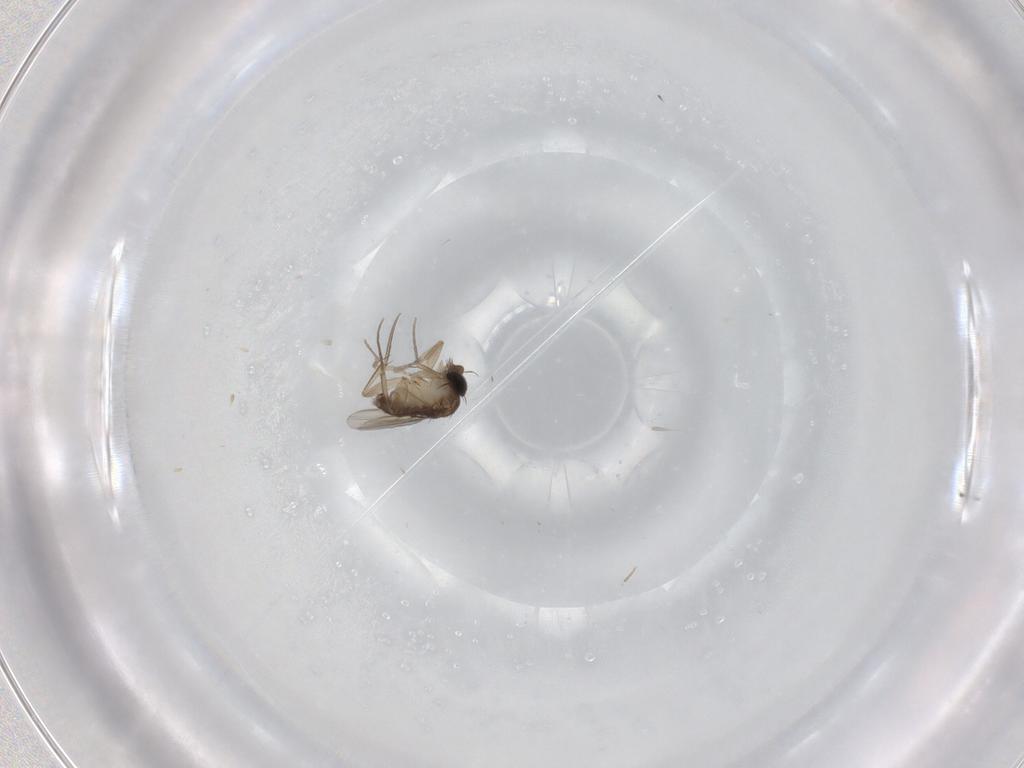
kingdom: Animalia
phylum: Arthropoda
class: Insecta
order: Diptera
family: Phoridae
